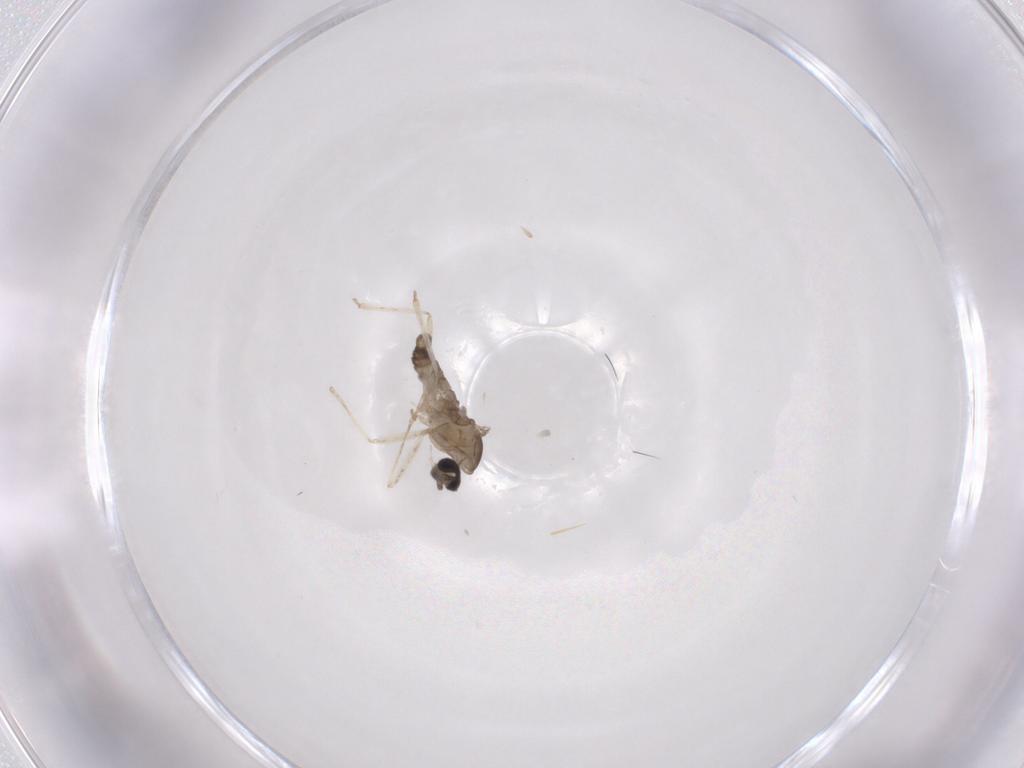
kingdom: Animalia
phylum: Arthropoda
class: Insecta
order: Diptera
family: Cecidomyiidae
